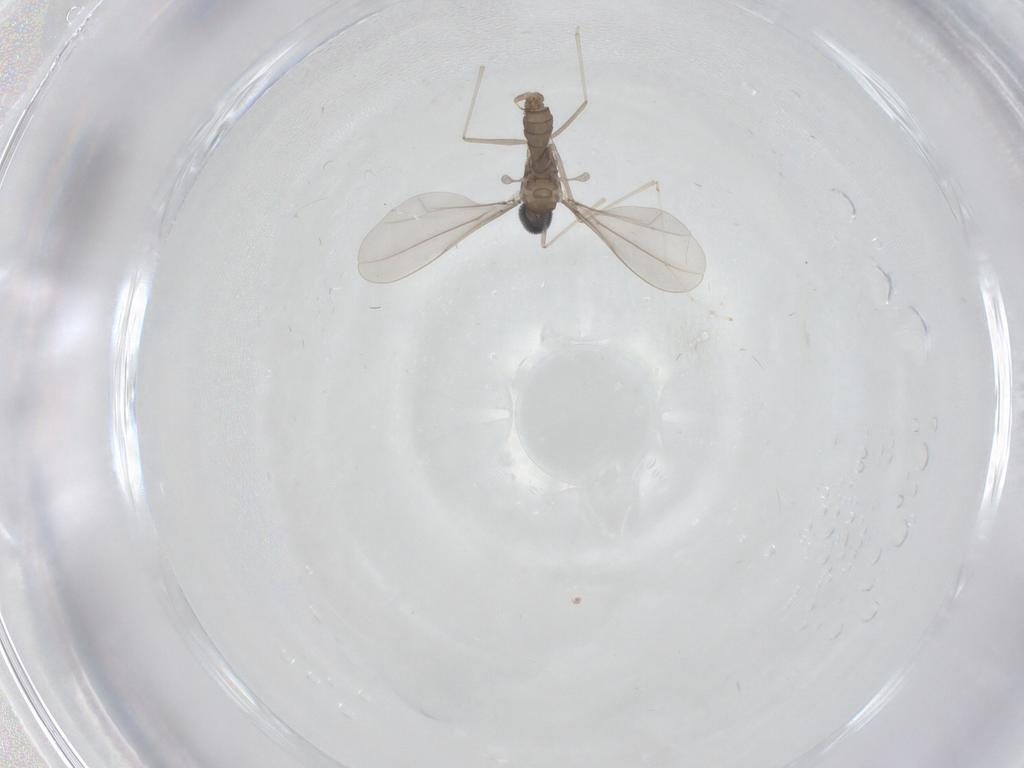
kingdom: Animalia
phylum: Arthropoda
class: Insecta
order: Diptera
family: Cecidomyiidae
